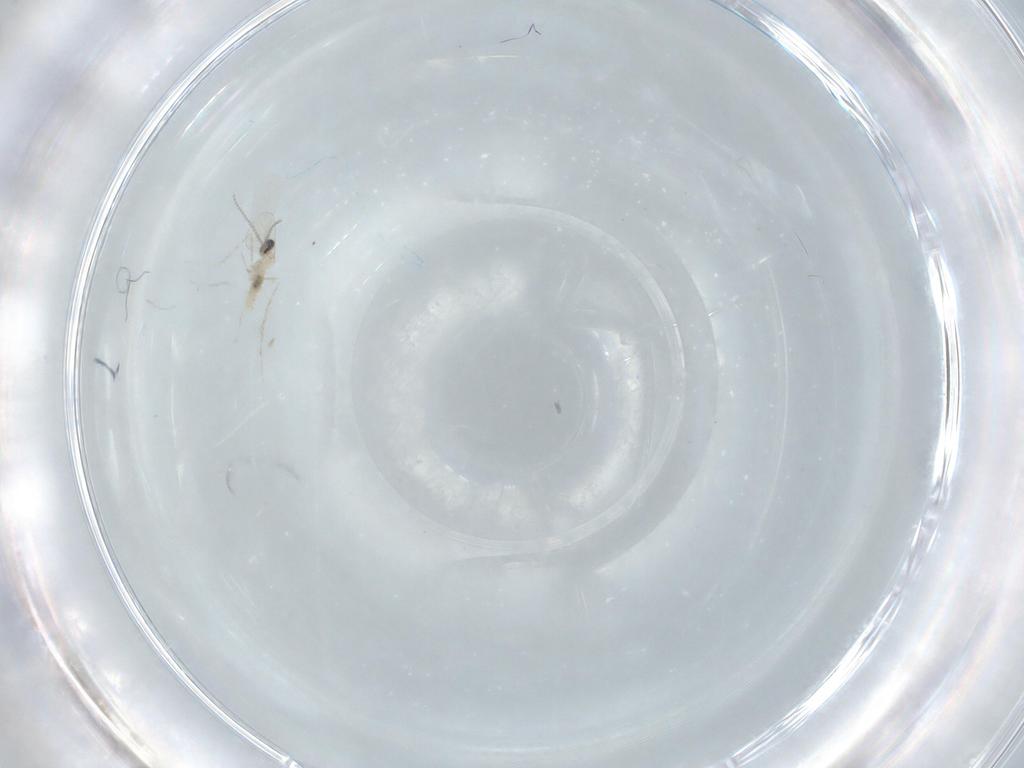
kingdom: Animalia
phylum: Arthropoda
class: Insecta
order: Diptera
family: Cecidomyiidae
